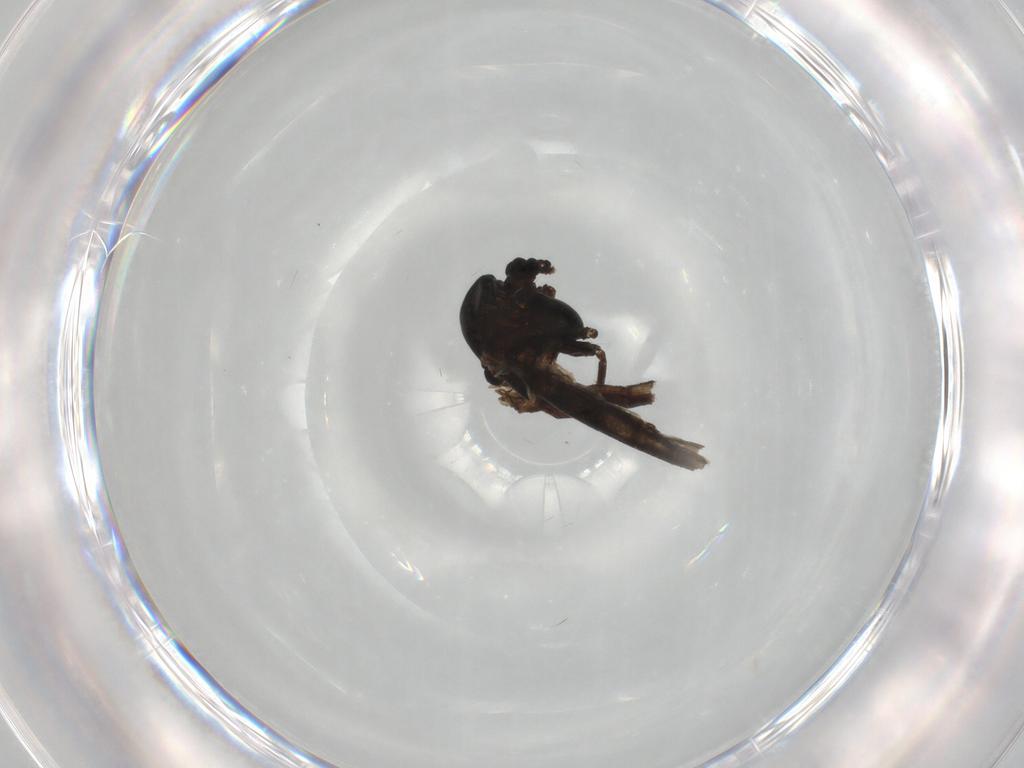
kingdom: Animalia
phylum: Arthropoda
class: Insecta
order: Diptera
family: Chironomidae
